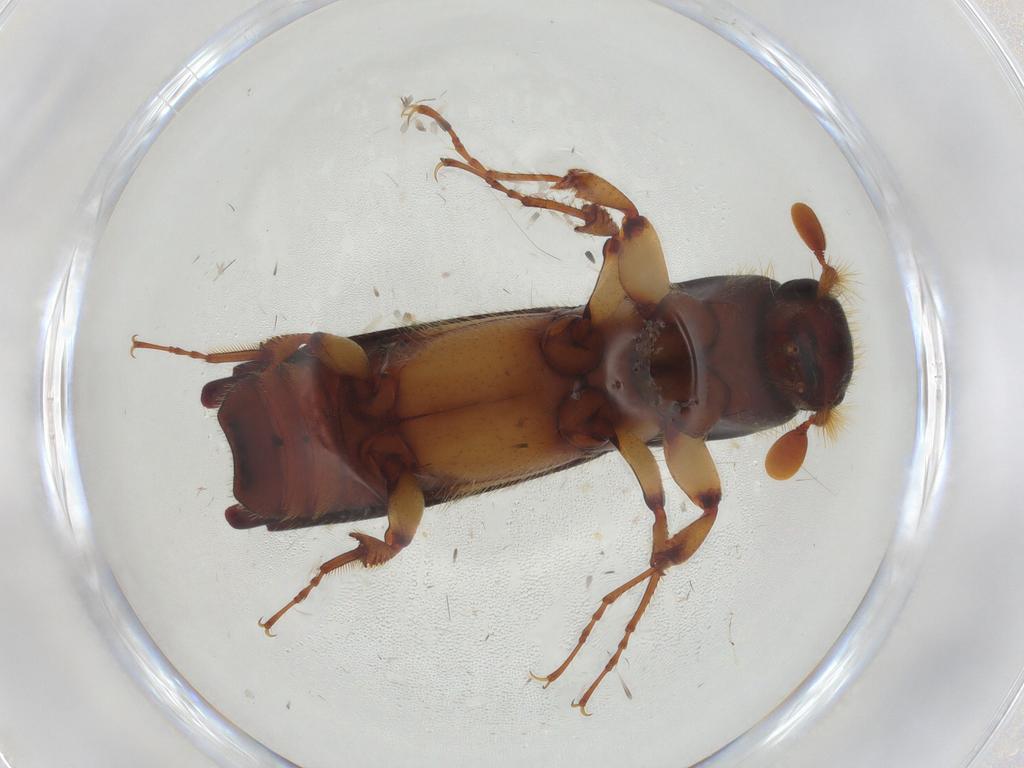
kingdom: Animalia
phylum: Arthropoda
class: Insecta
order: Coleoptera
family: Curculionidae
